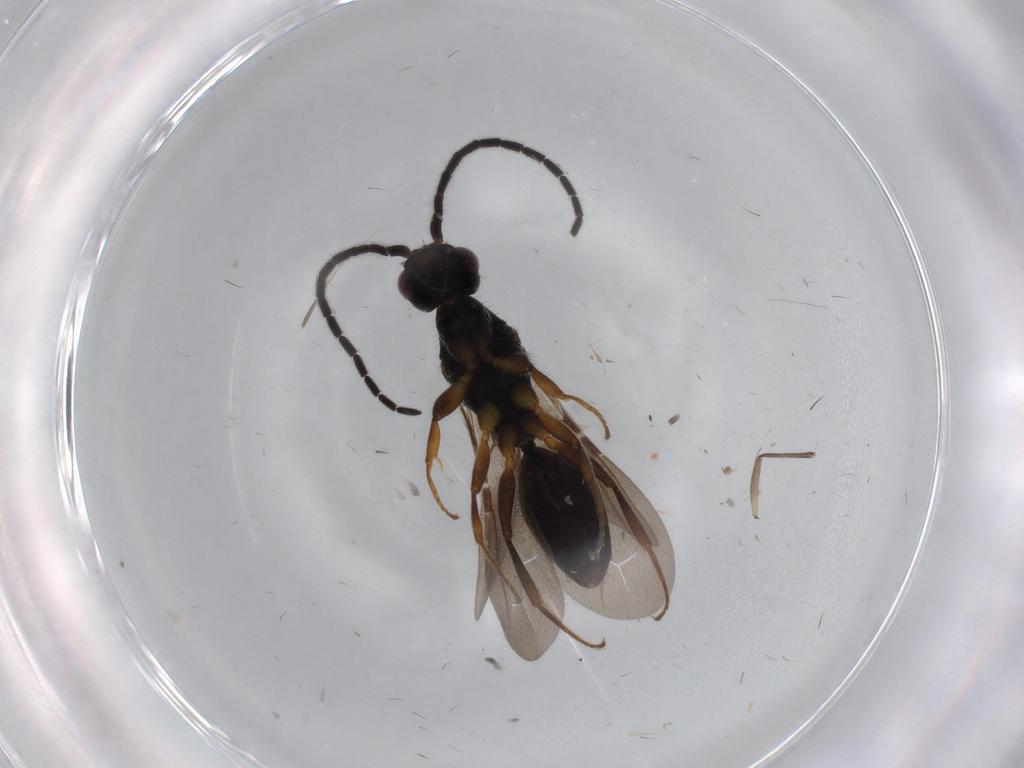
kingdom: Animalia
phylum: Arthropoda
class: Insecta
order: Hymenoptera
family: Bethylidae
